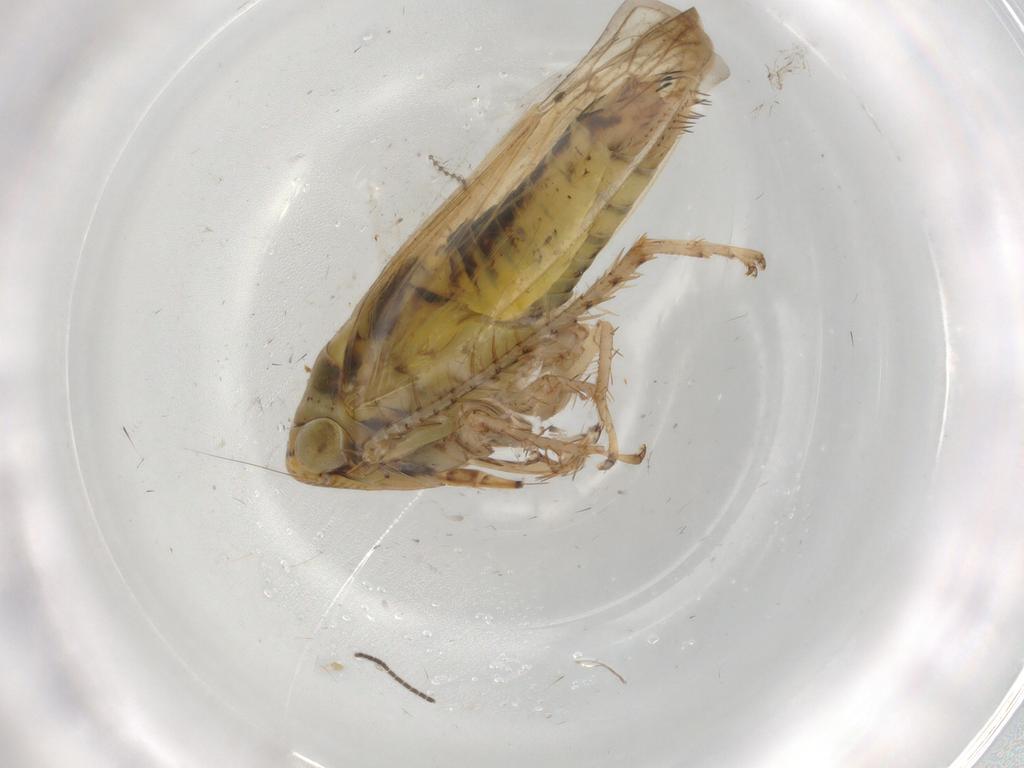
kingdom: Animalia
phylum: Arthropoda
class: Insecta
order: Hemiptera
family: Cicadellidae
